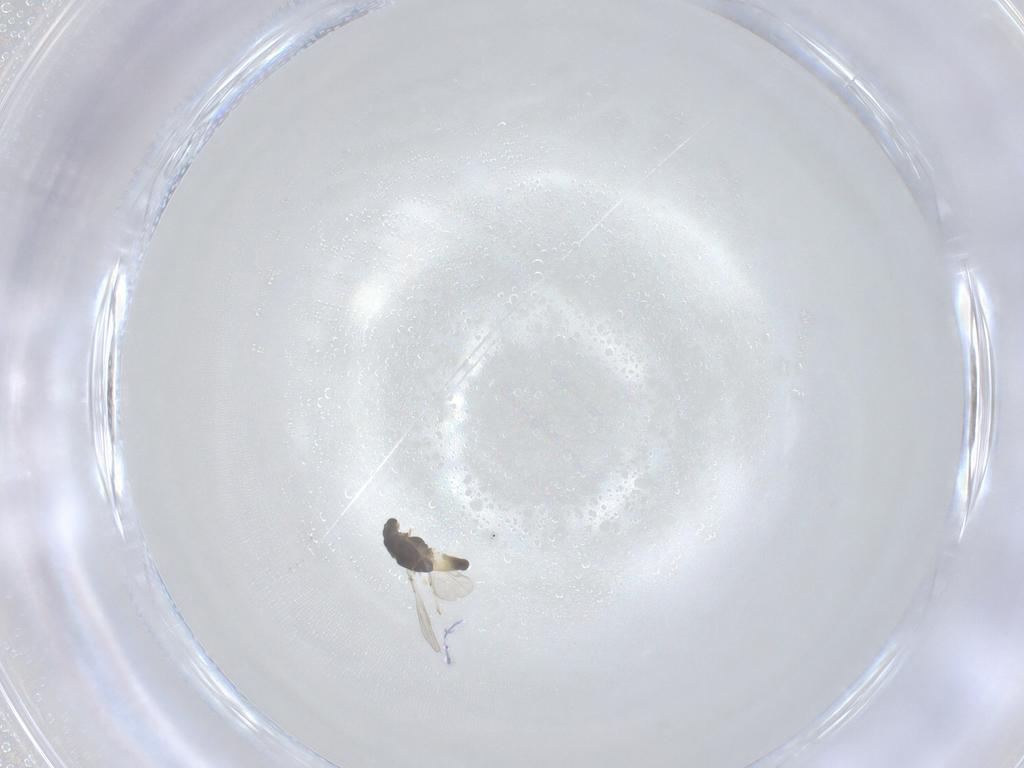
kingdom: Animalia
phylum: Arthropoda
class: Insecta
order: Diptera
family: Chironomidae
